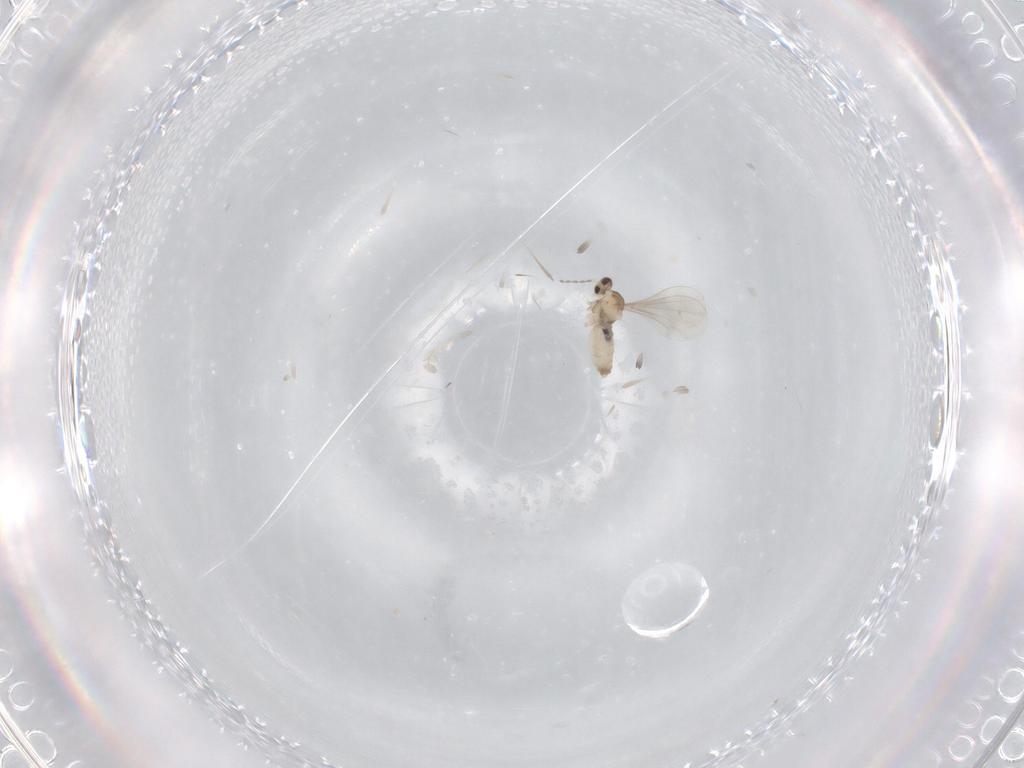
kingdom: Animalia
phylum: Arthropoda
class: Insecta
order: Diptera
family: Cecidomyiidae
